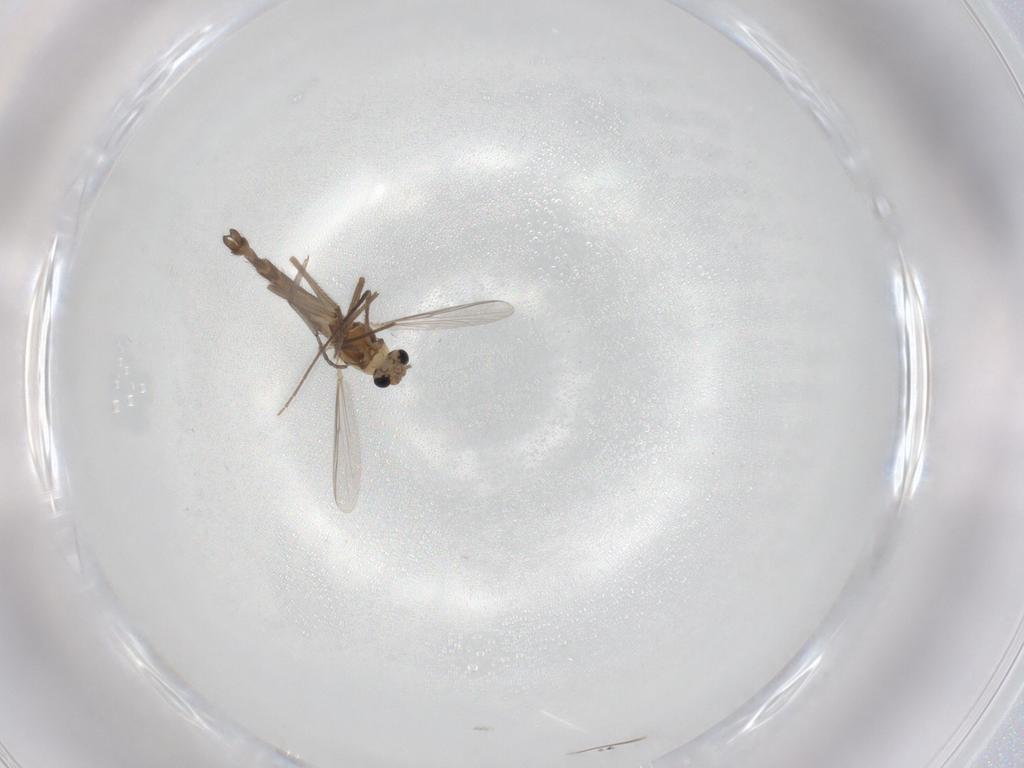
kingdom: Animalia
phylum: Arthropoda
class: Insecta
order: Diptera
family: Chironomidae
